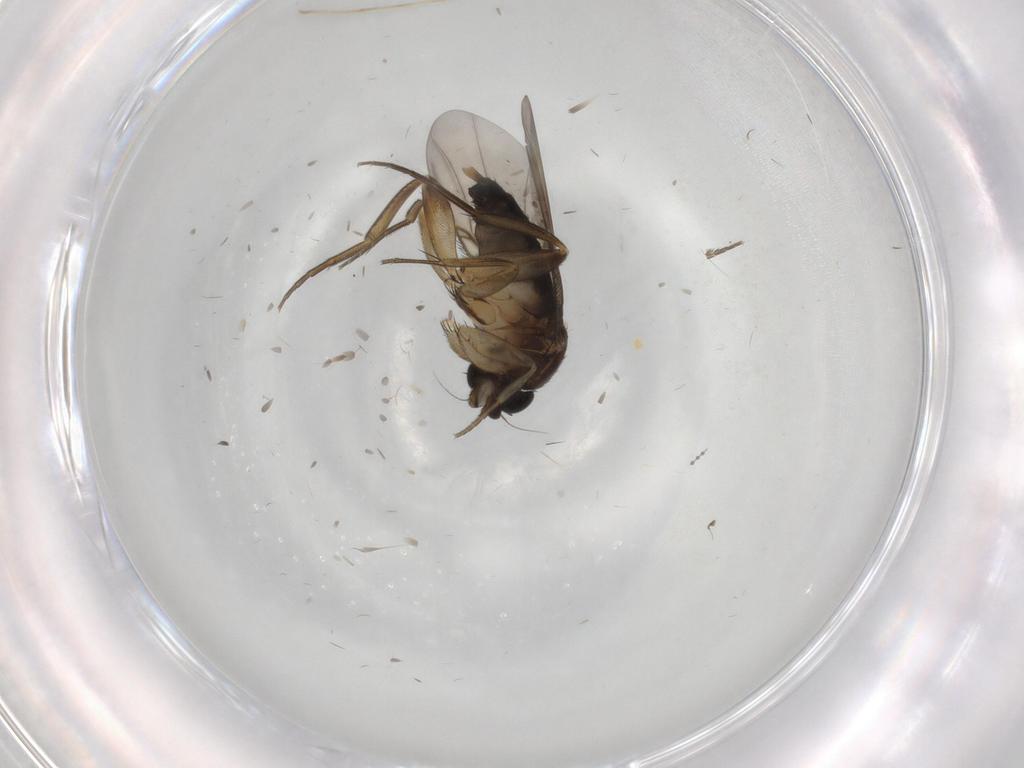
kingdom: Animalia
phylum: Arthropoda
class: Insecta
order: Diptera
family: Phoridae
